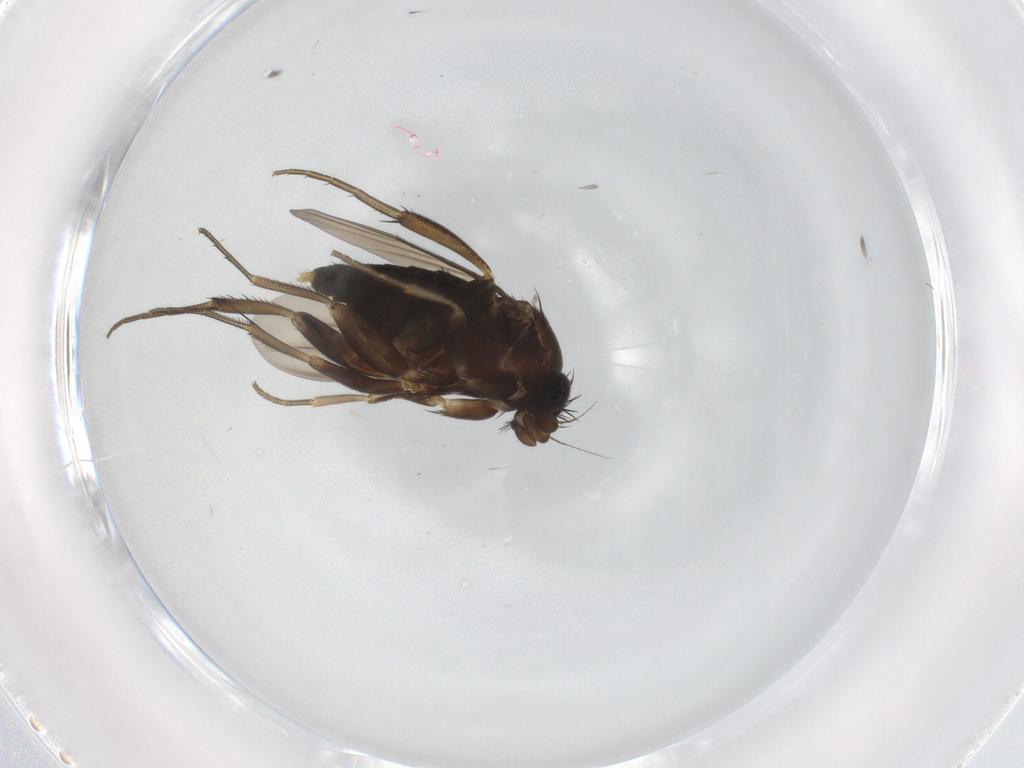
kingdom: Animalia
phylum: Arthropoda
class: Insecta
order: Diptera
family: Phoridae
